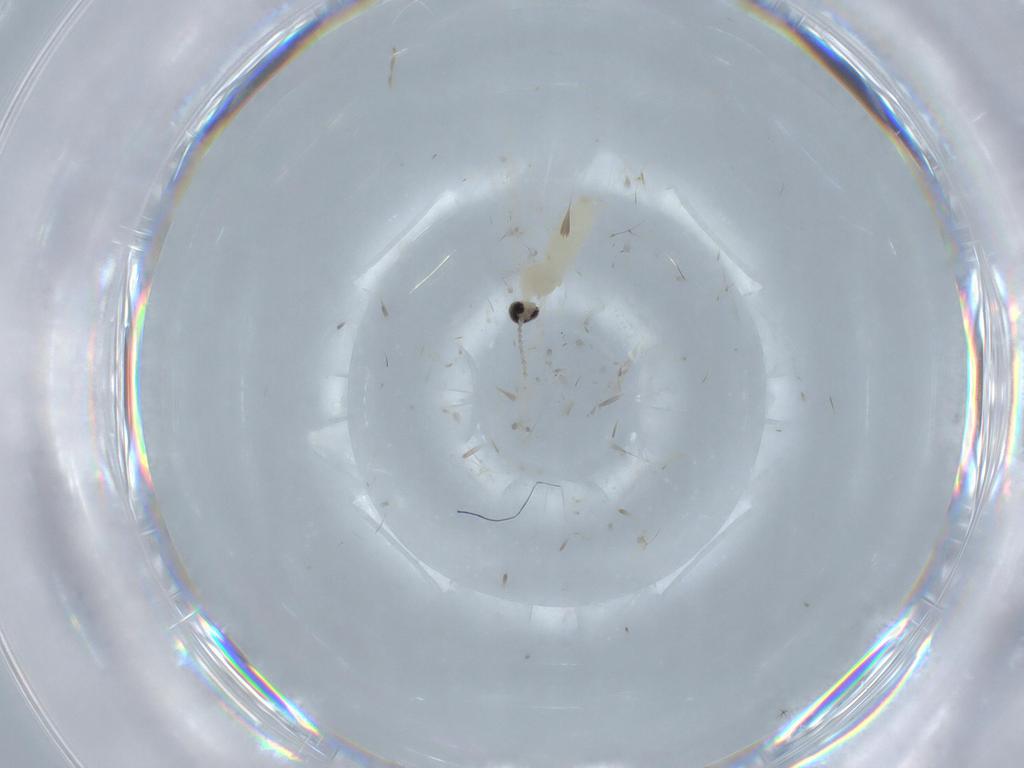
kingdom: Animalia
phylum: Arthropoda
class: Insecta
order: Diptera
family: Cecidomyiidae
